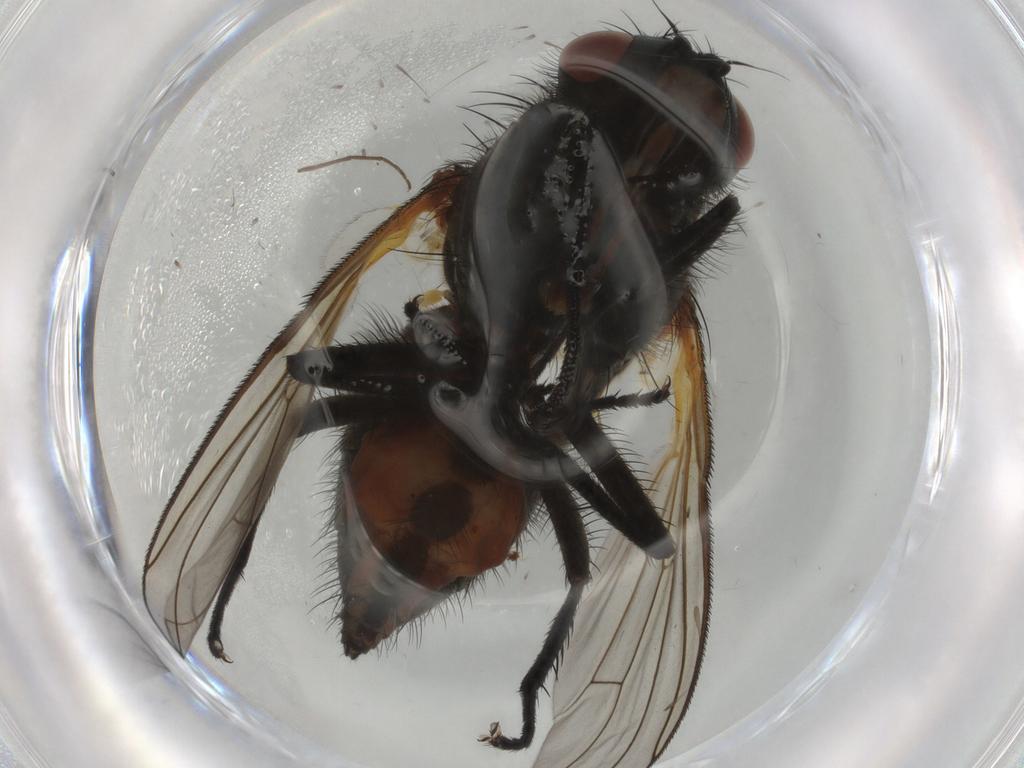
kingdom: Animalia
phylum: Arthropoda
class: Insecta
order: Diptera
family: Anthomyiidae
